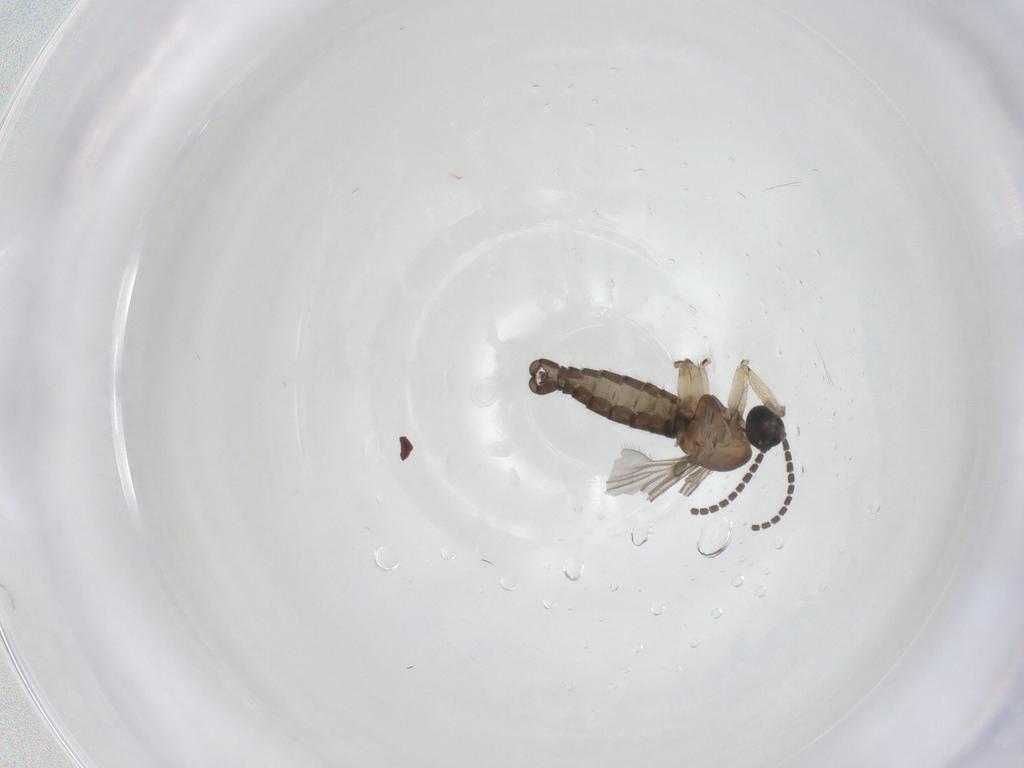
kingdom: Animalia
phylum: Arthropoda
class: Insecta
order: Diptera
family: Sciaridae
